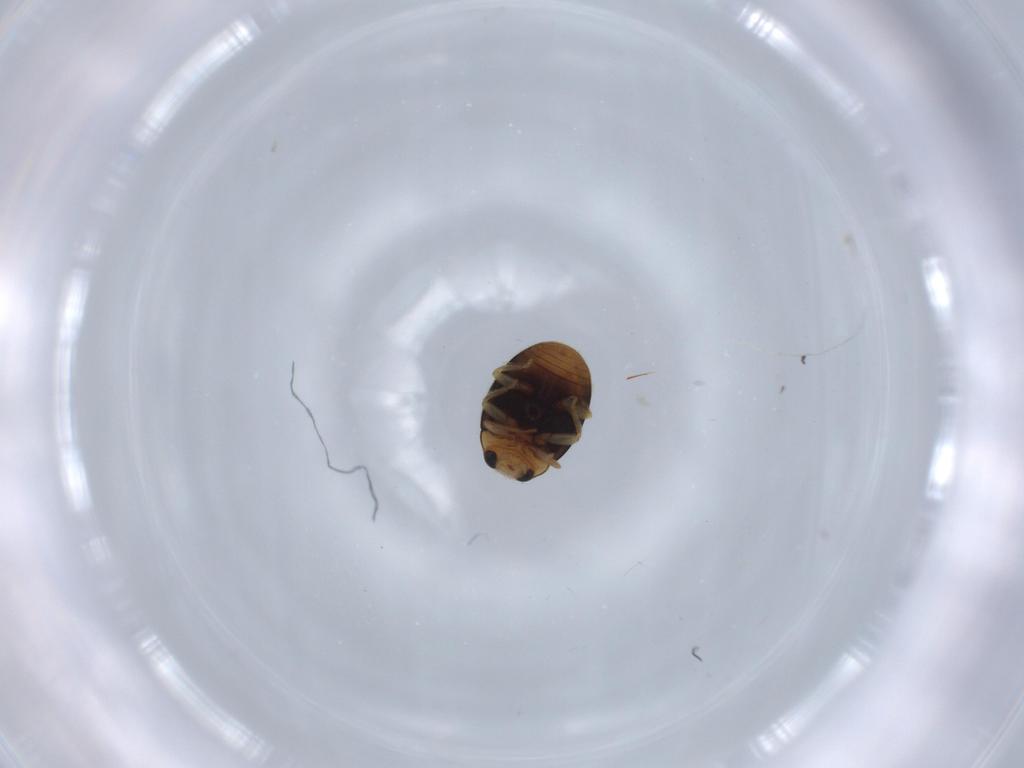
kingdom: Animalia
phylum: Arthropoda
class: Insecta
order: Coleoptera
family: Coccinellidae
